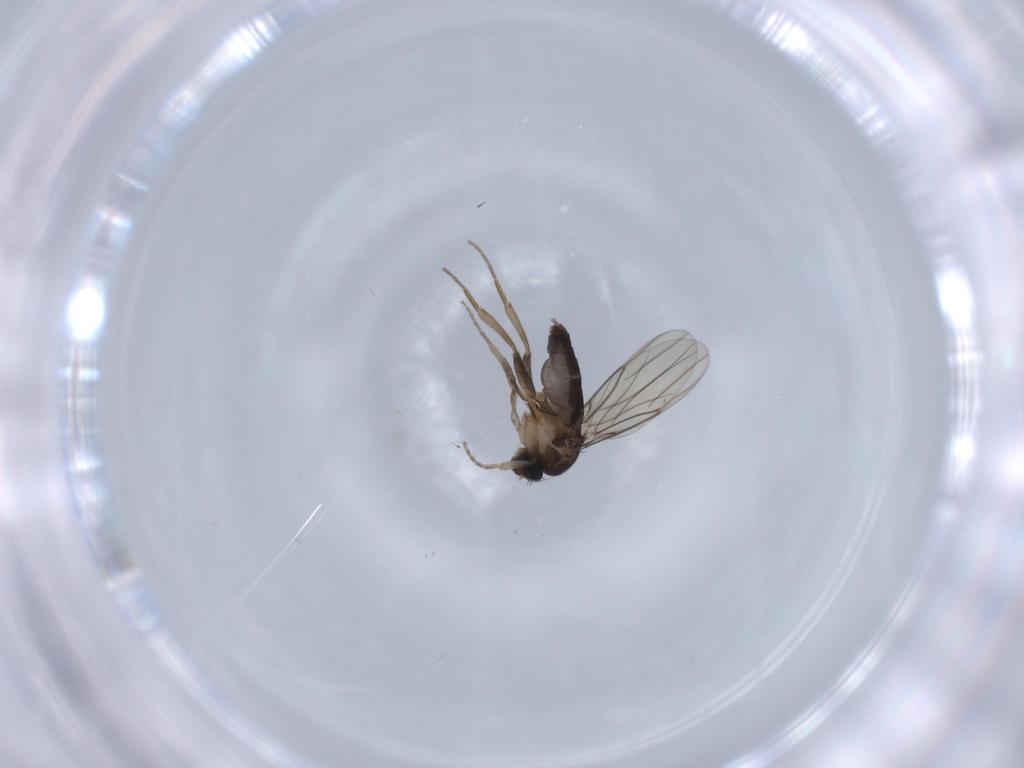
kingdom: Animalia
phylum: Arthropoda
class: Insecta
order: Diptera
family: Phoridae
